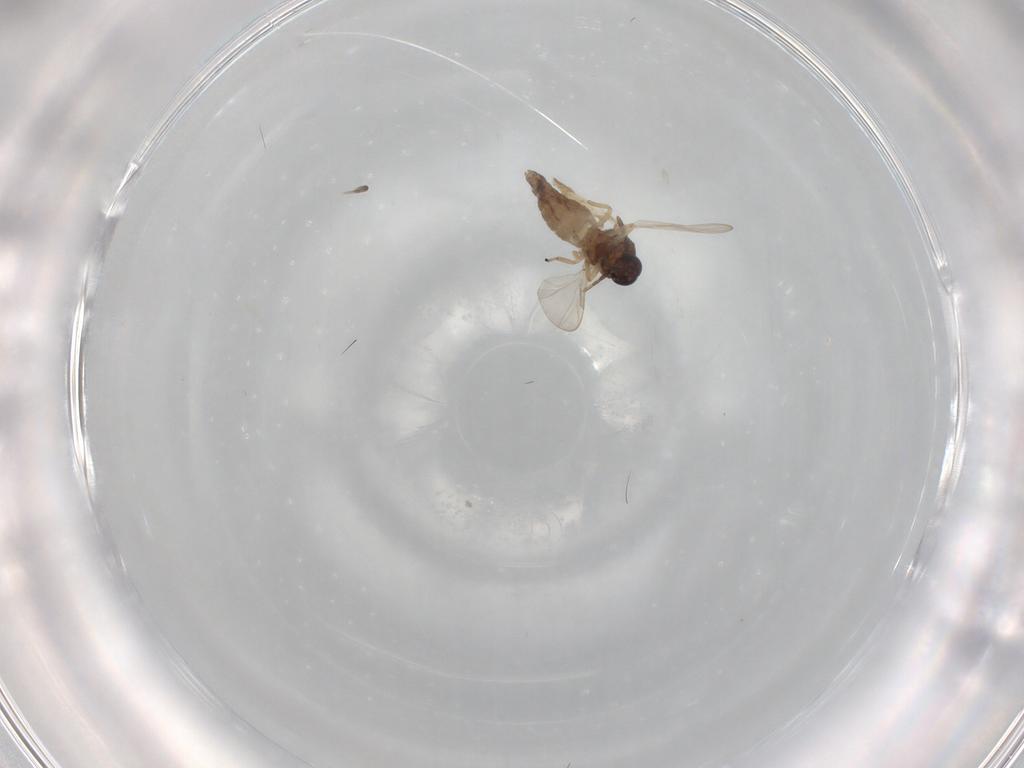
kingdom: Animalia
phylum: Arthropoda
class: Insecta
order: Diptera
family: Ceratopogonidae
